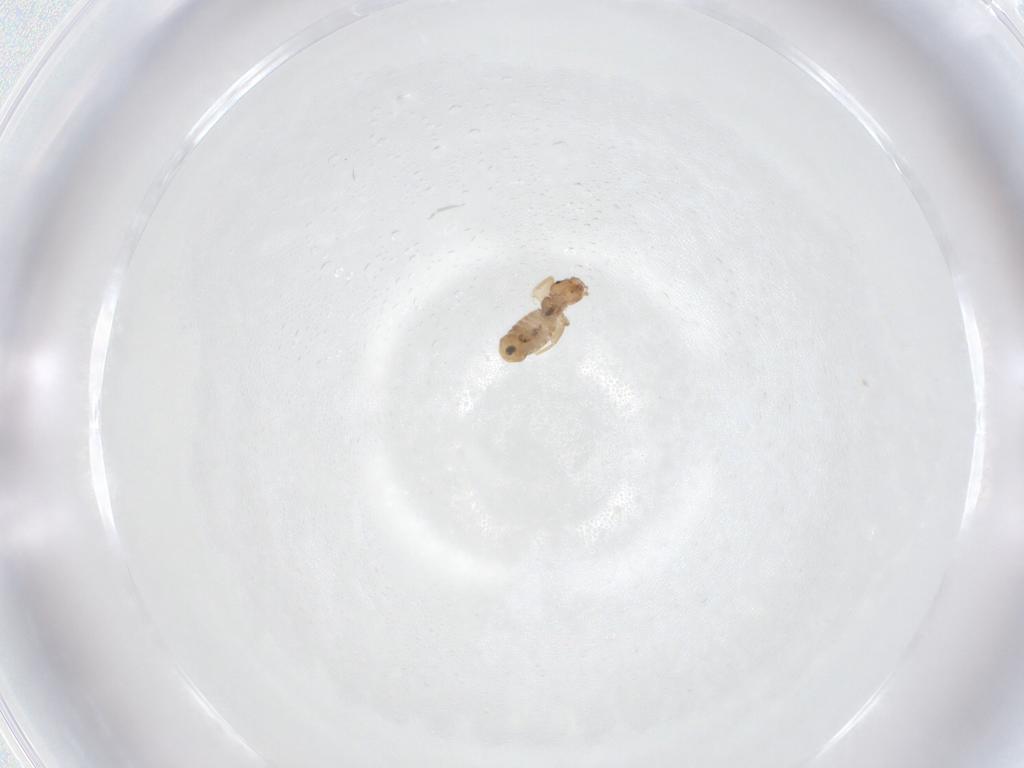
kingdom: Animalia
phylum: Arthropoda
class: Insecta
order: Psocodea
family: Liposcelididae
